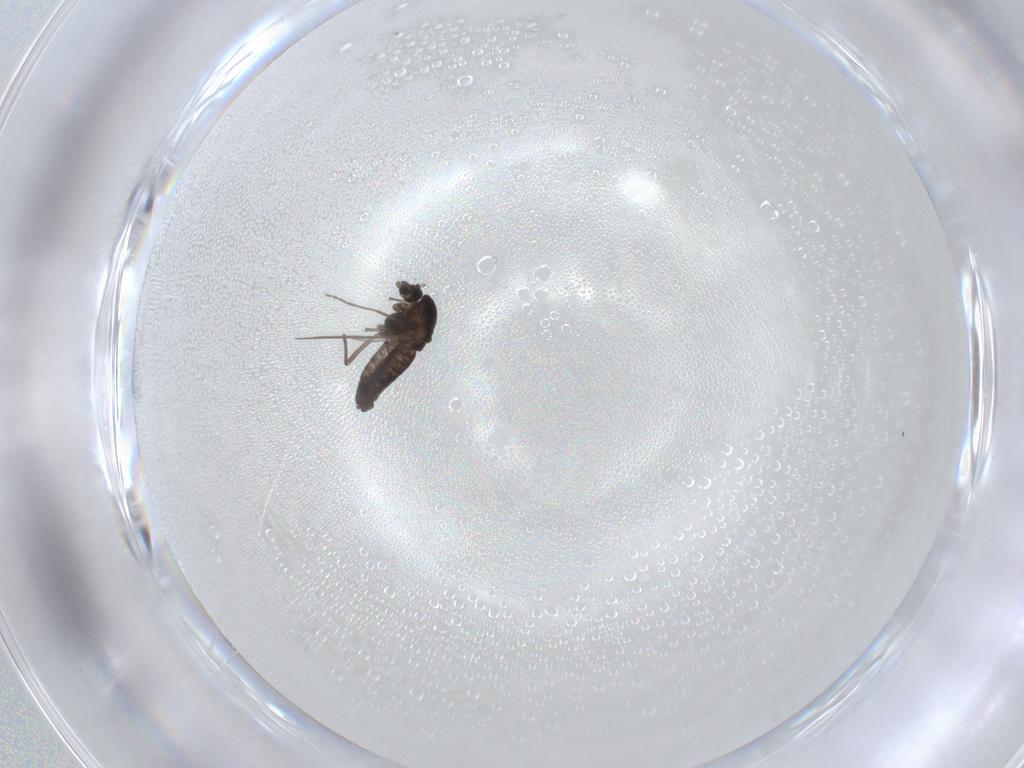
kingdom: Animalia
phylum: Arthropoda
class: Insecta
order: Diptera
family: Chironomidae
